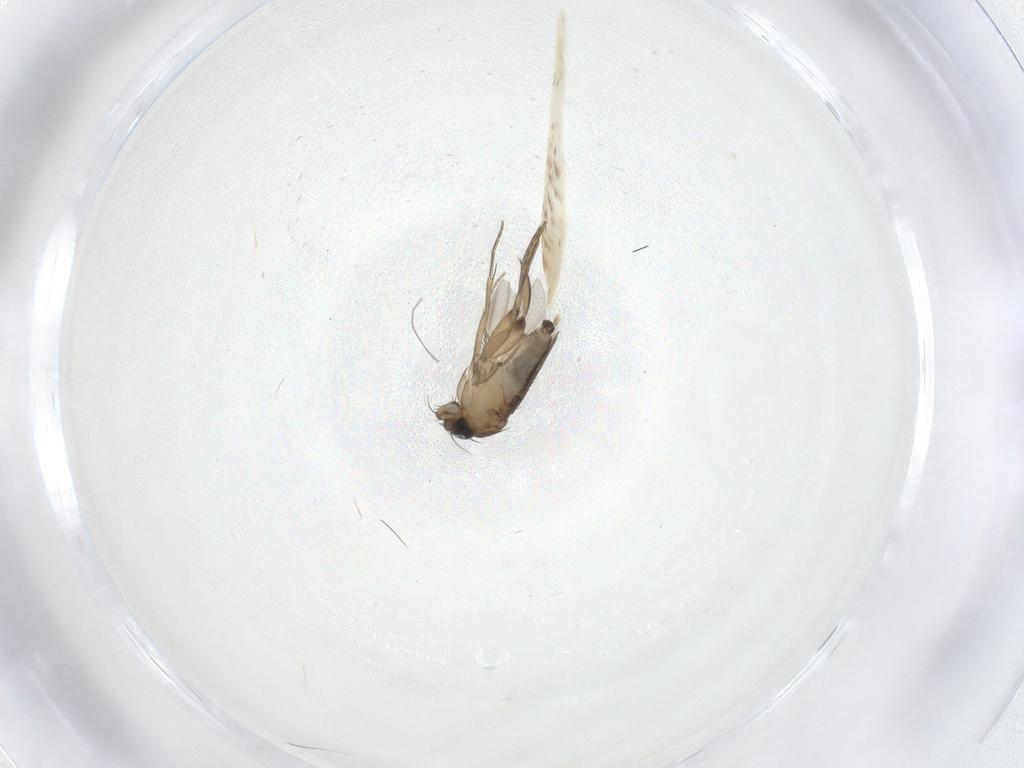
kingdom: Animalia
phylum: Arthropoda
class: Insecta
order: Diptera
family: Phoridae
